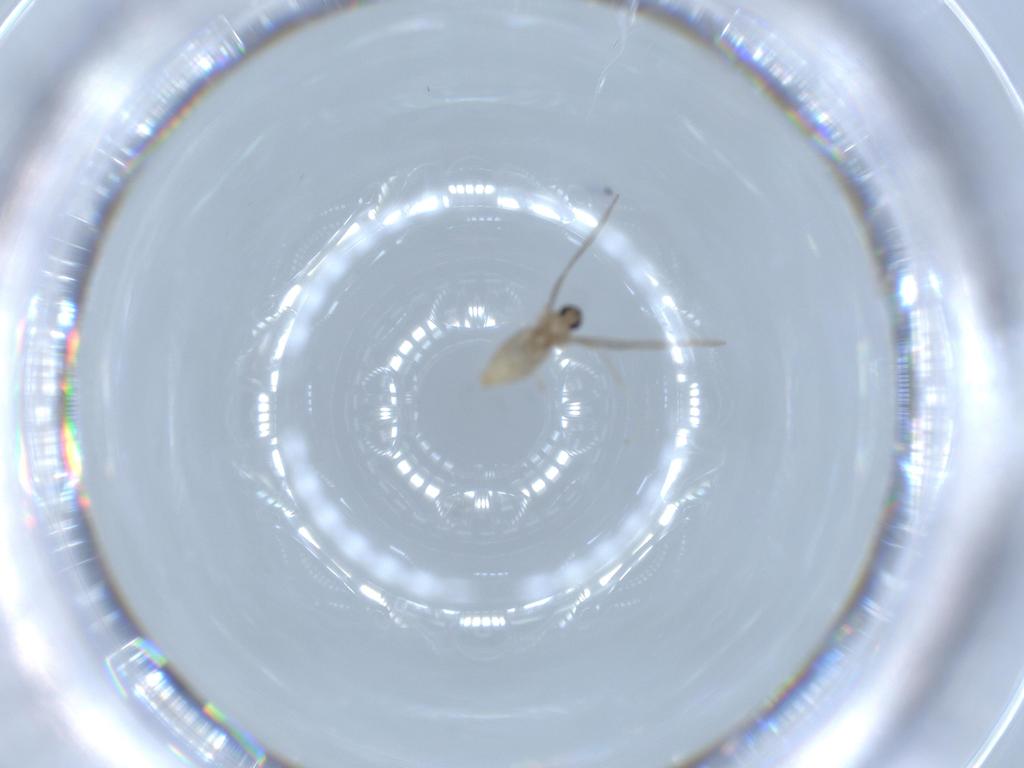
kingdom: Animalia
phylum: Arthropoda
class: Insecta
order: Diptera
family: Cecidomyiidae
